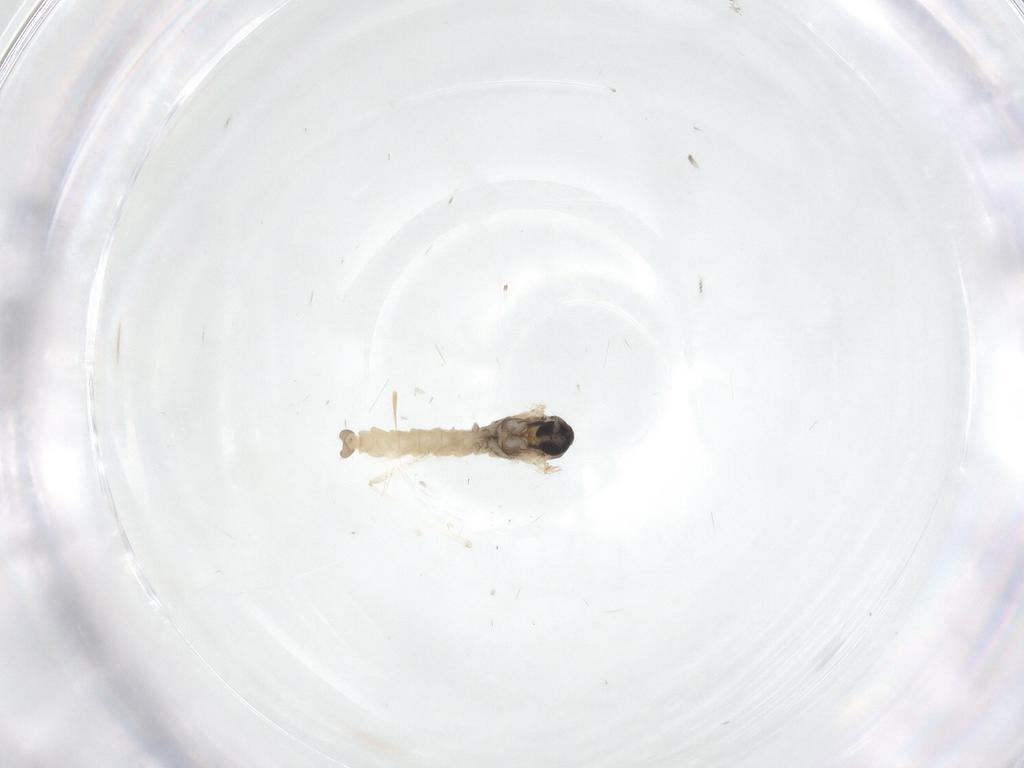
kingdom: Animalia
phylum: Arthropoda
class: Insecta
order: Diptera
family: Cecidomyiidae
